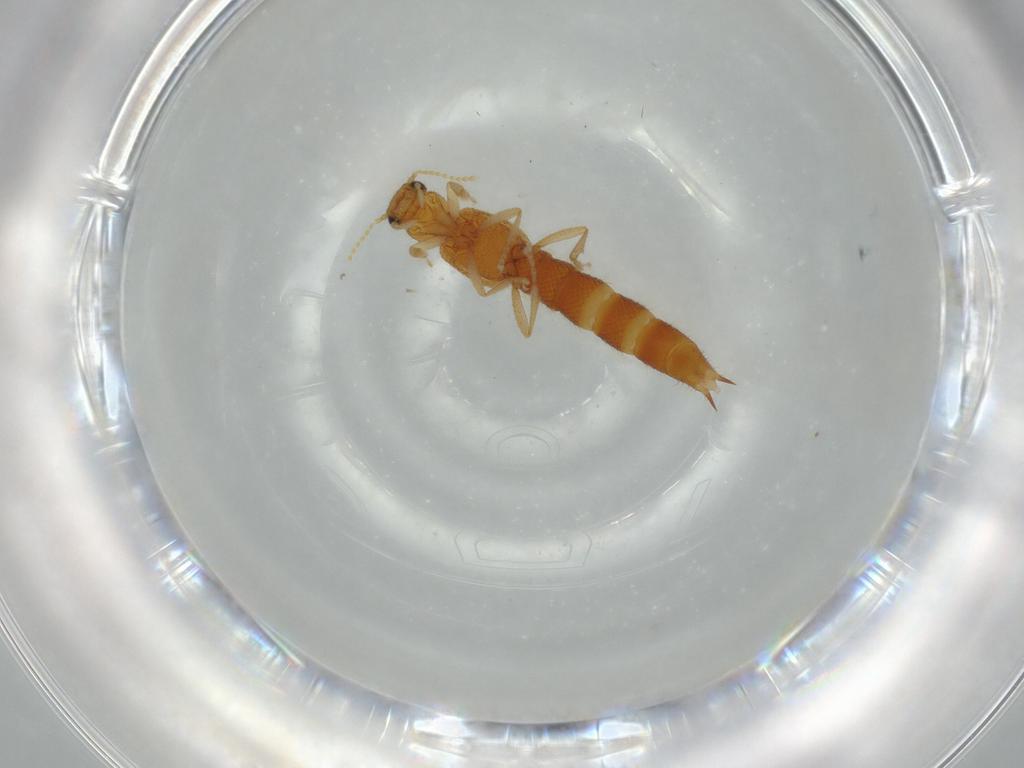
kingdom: Animalia
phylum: Arthropoda
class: Insecta
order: Coleoptera
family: Staphylinidae
